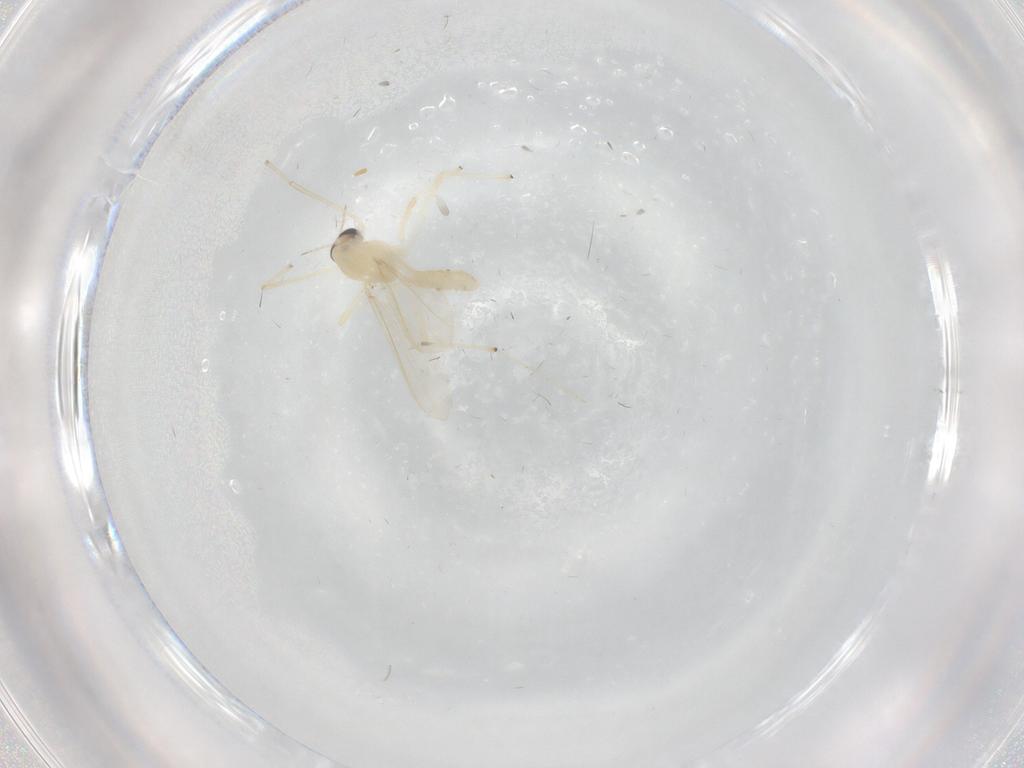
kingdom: Animalia
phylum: Arthropoda
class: Insecta
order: Diptera
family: Chironomidae
